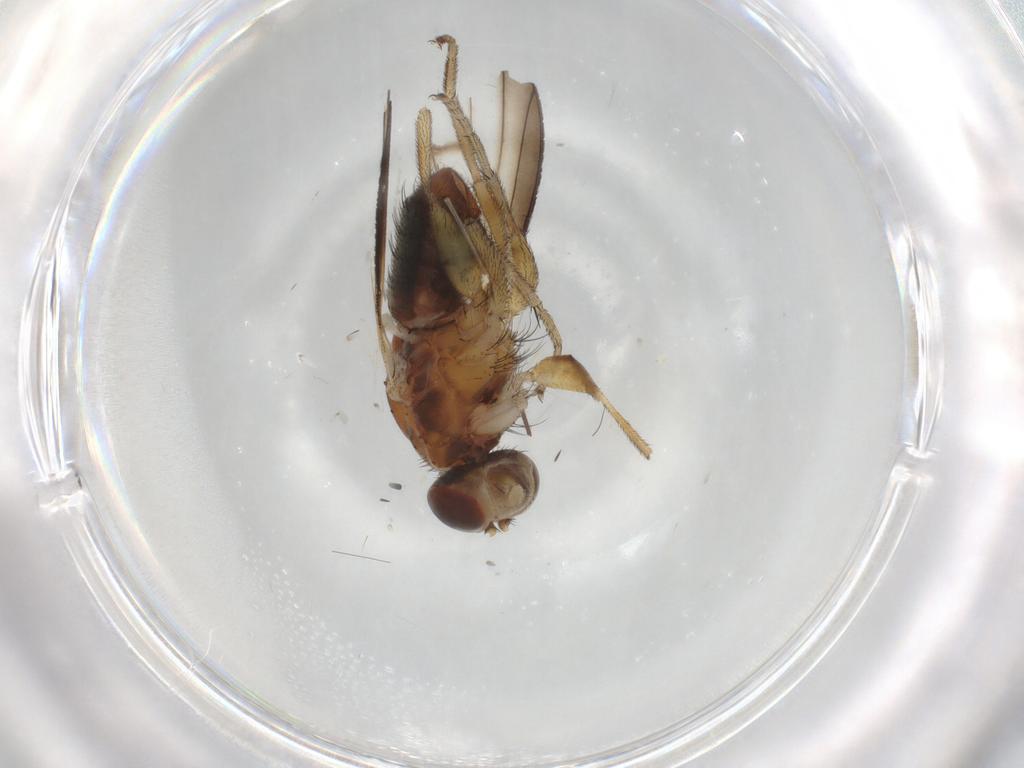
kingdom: Animalia
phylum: Arthropoda
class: Insecta
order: Diptera
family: Heleomyzidae
